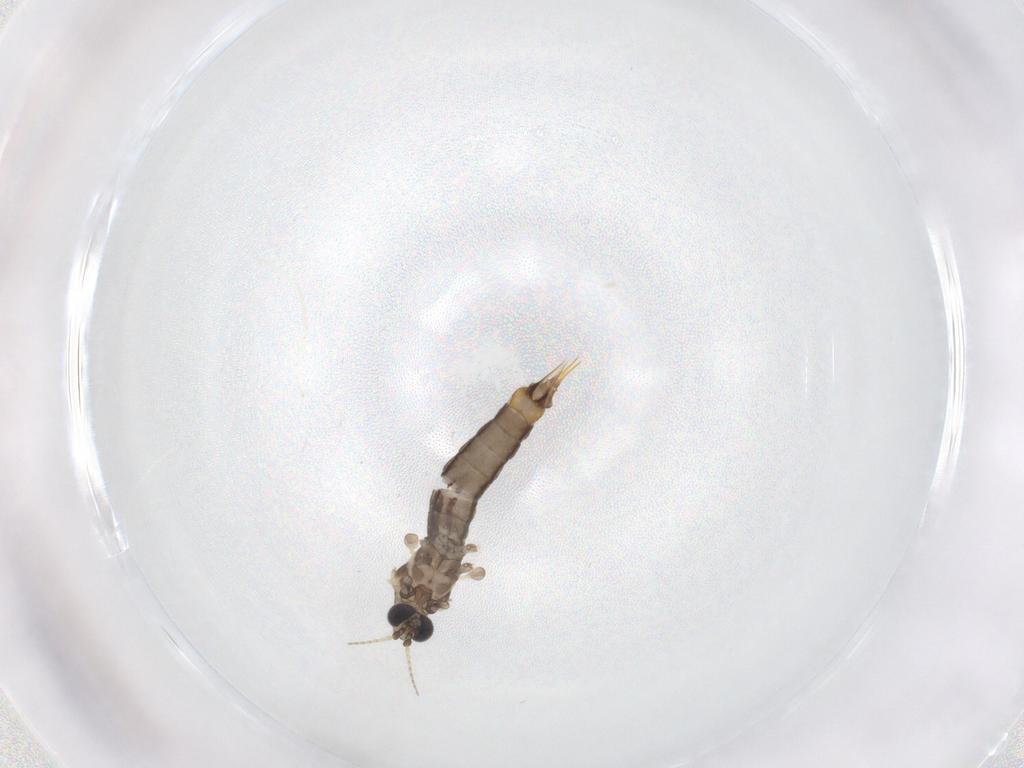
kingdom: Animalia
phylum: Arthropoda
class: Insecta
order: Diptera
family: Limoniidae
